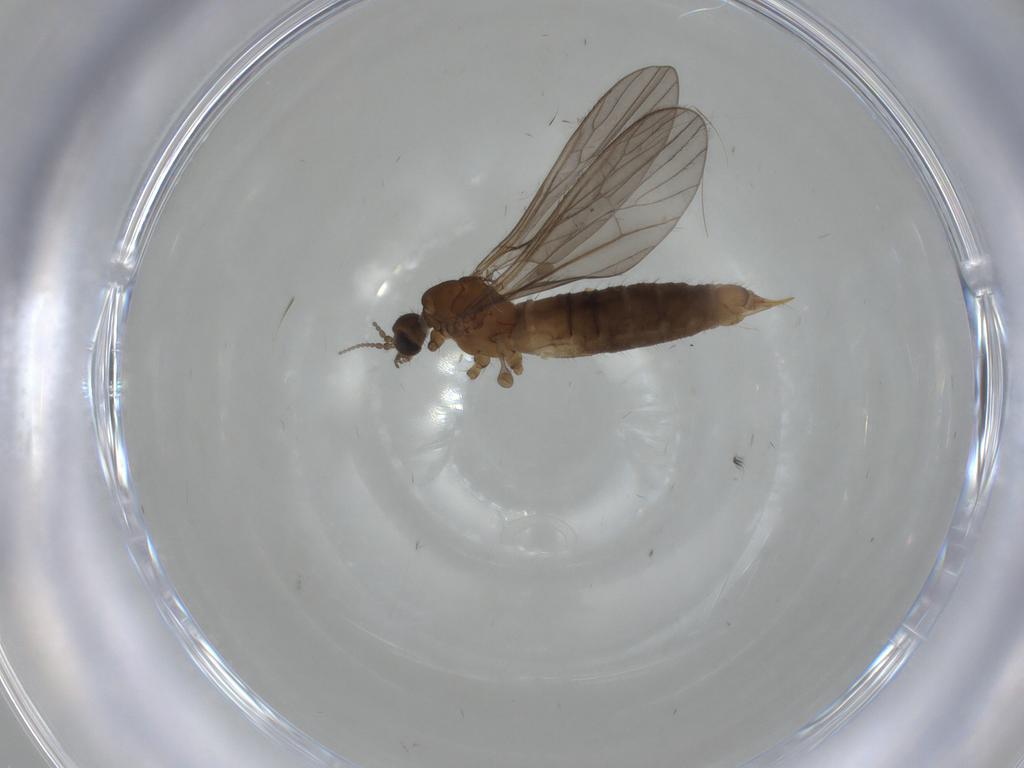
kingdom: Animalia
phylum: Arthropoda
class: Insecta
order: Diptera
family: Limoniidae
